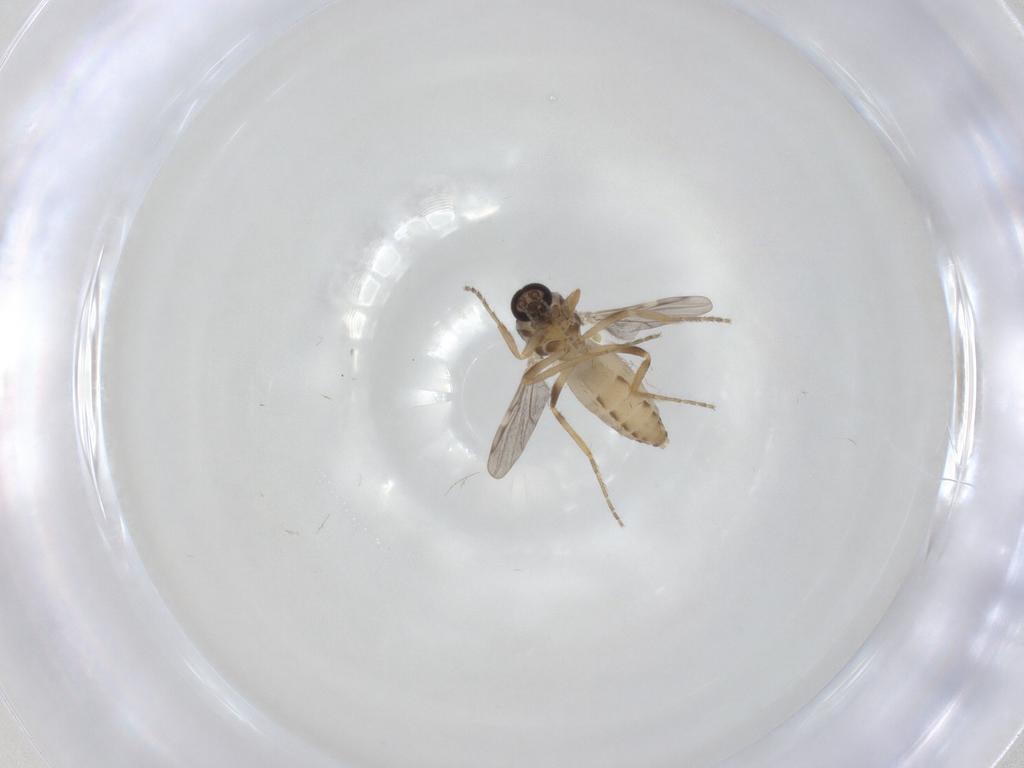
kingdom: Animalia
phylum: Arthropoda
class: Insecta
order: Diptera
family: Ceratopogonidae
